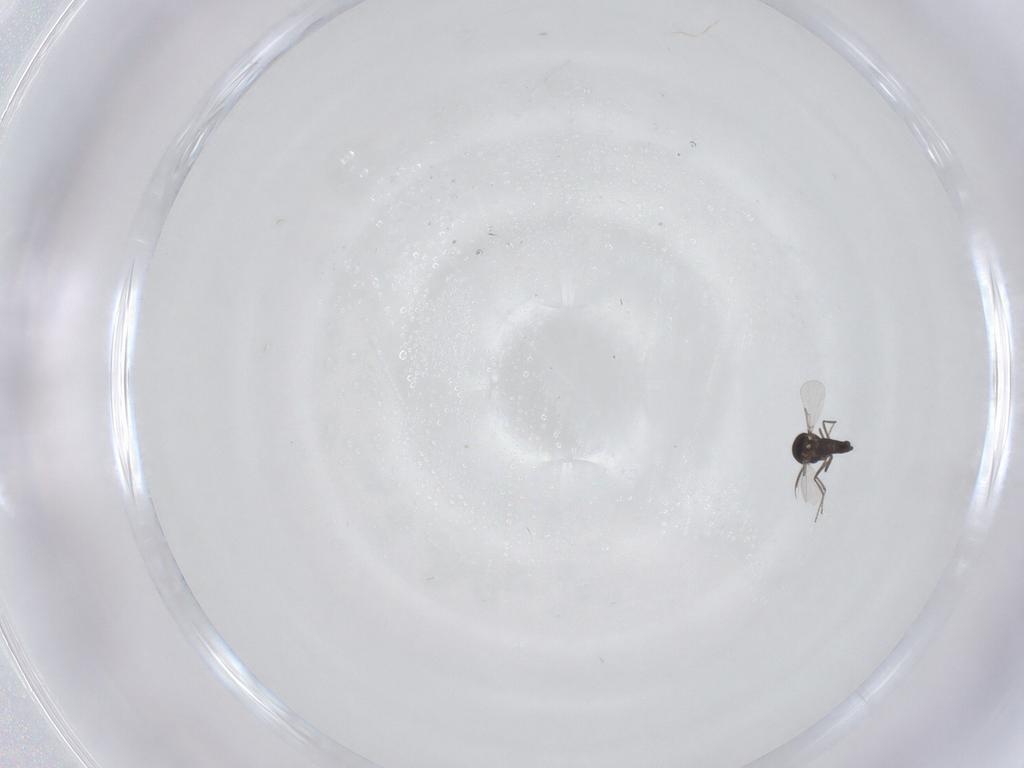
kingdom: Animalia
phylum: Arthropoda
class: Insecta
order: Diptera
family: Ceratopogonidae
